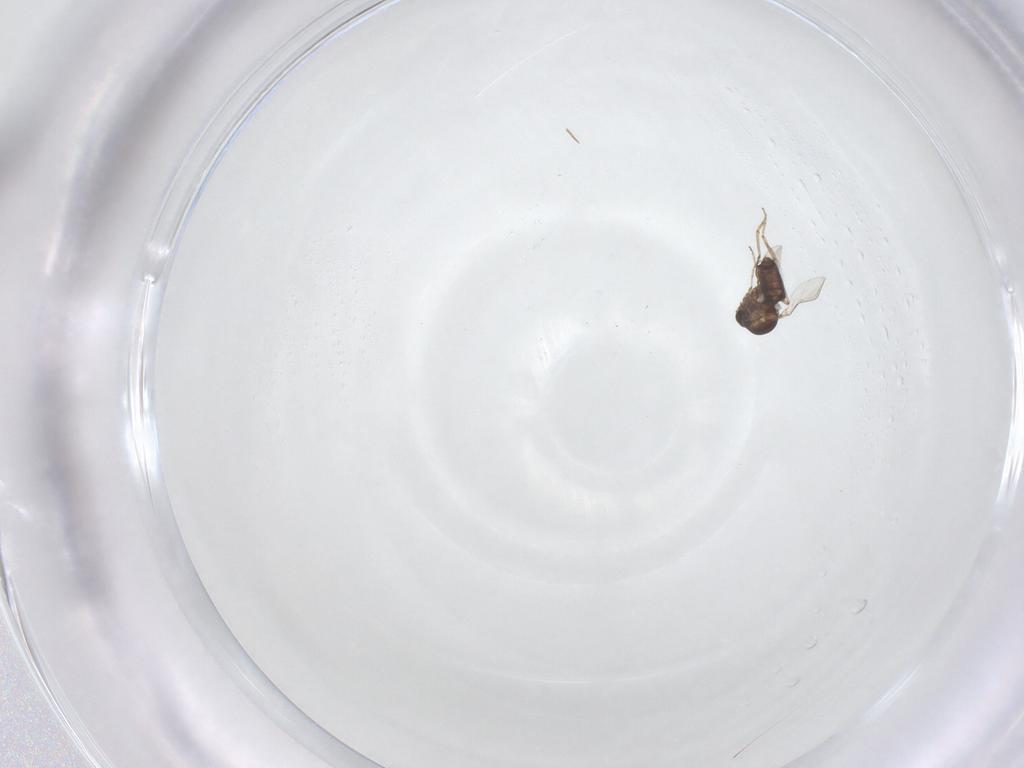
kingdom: Animalia
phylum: Arthropoda
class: Insecta
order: Diptera
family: Ceratopogonidae
